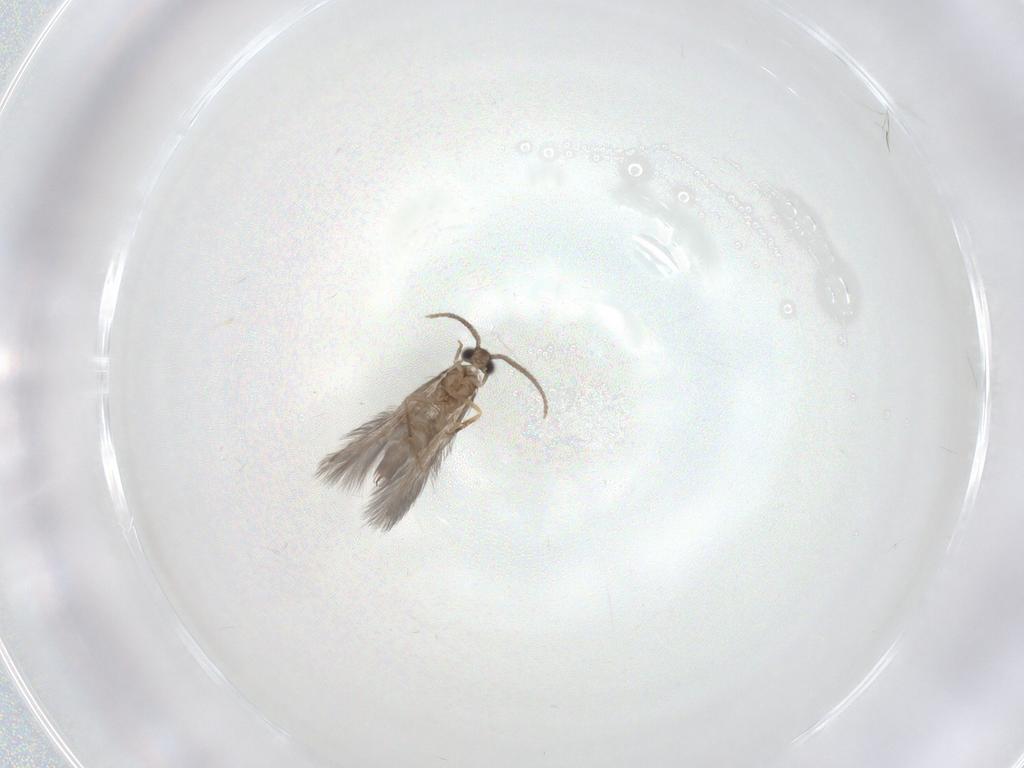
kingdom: Animalia
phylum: Arthropoda
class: Insecta
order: Trichoptera
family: Hydroptilidae
